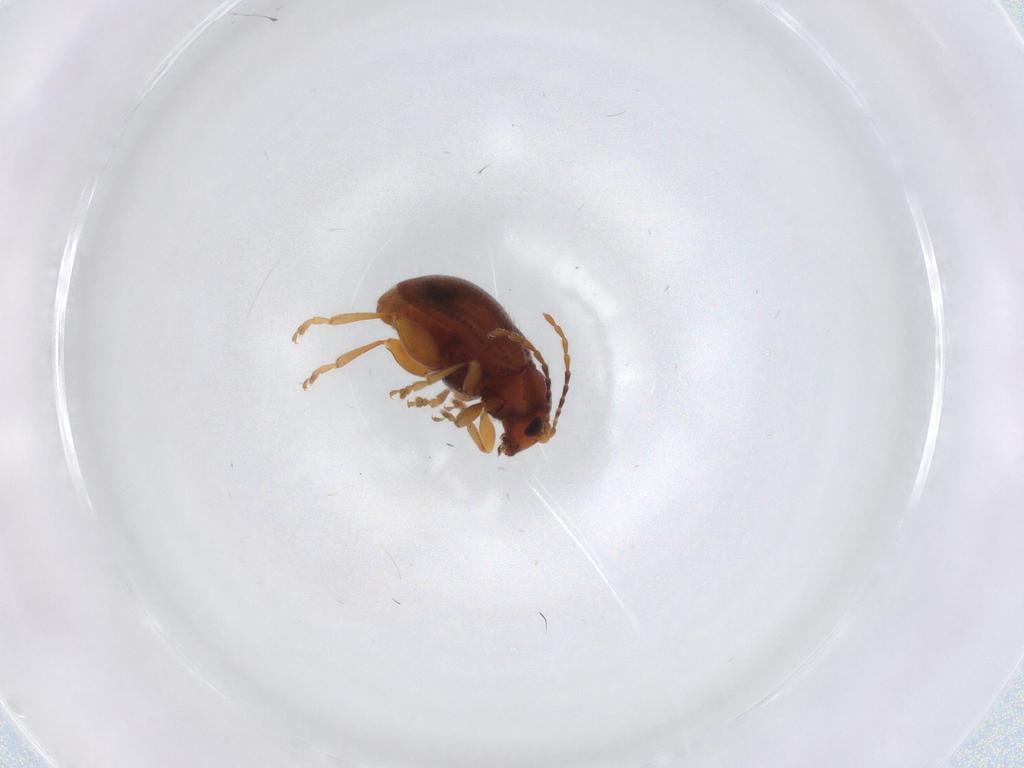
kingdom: Animalia
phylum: Arthropoda
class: Insecta
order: Coleoptera
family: Chrysomelidae
